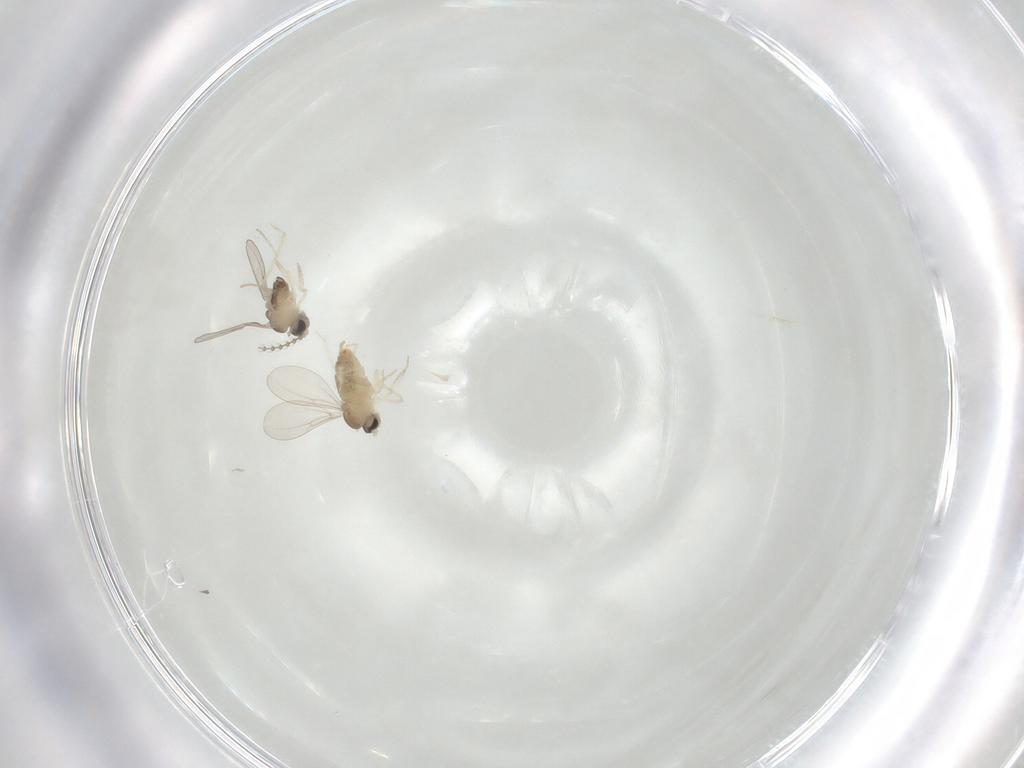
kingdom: Animalia
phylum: Arthropoda
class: Insecta
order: Diptera
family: Cecidomyiidae
